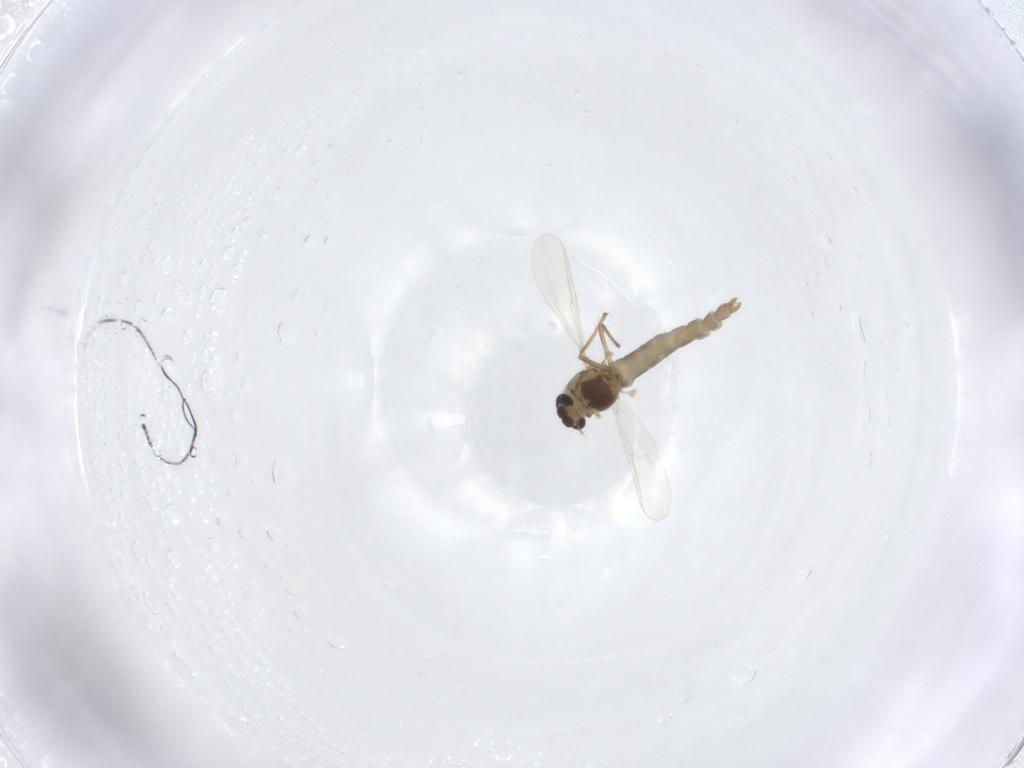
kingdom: Animalia
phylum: Arthropoda
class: Insecta
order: Diptera
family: Chironomidae
